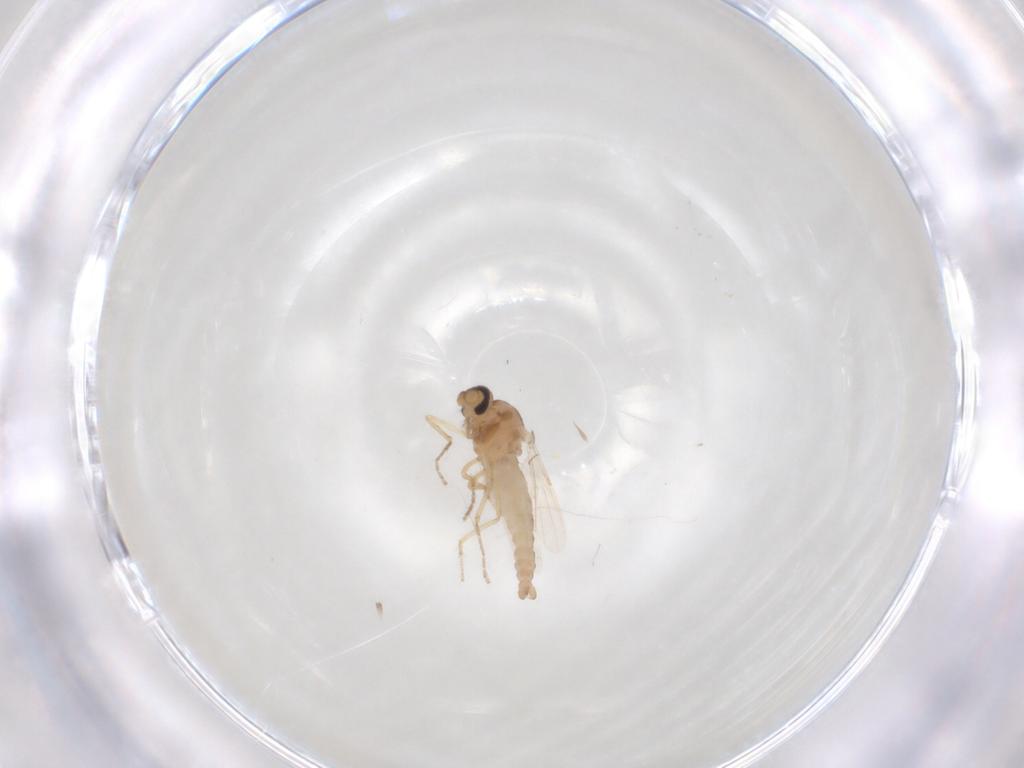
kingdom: Animalia
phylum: Arthropoda
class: Insecta
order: Diptera
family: Ceratopogonidae
